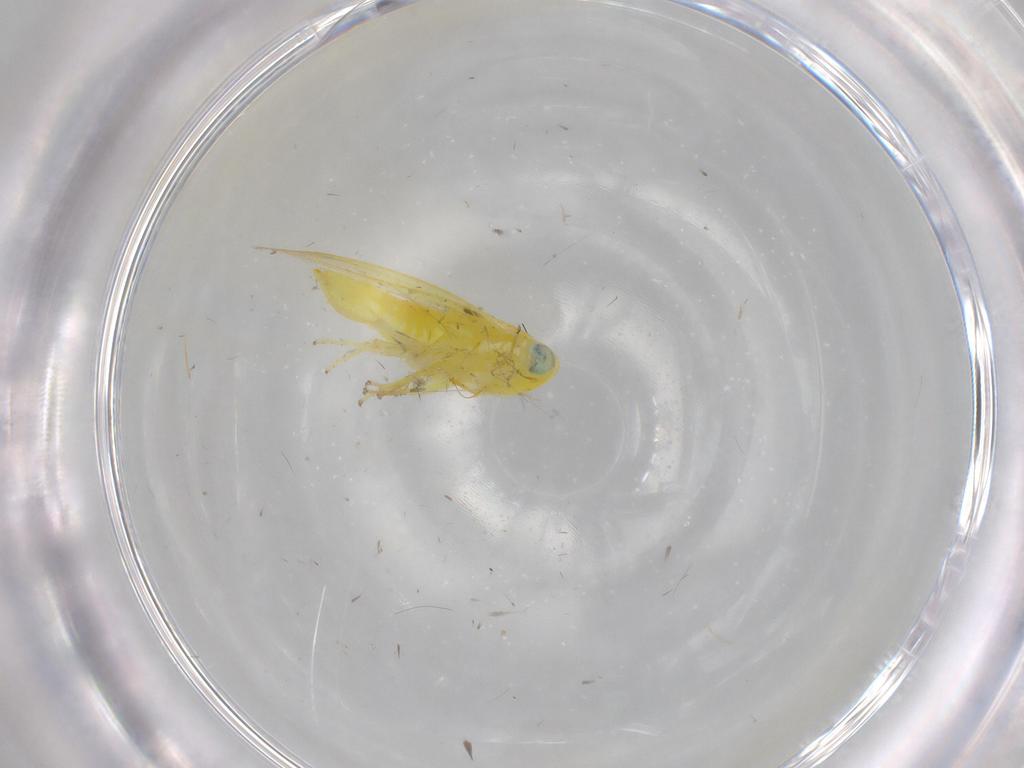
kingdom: Animalia
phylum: Arthropoda
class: Insecta
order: Hemiptera
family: Cicadellidae
